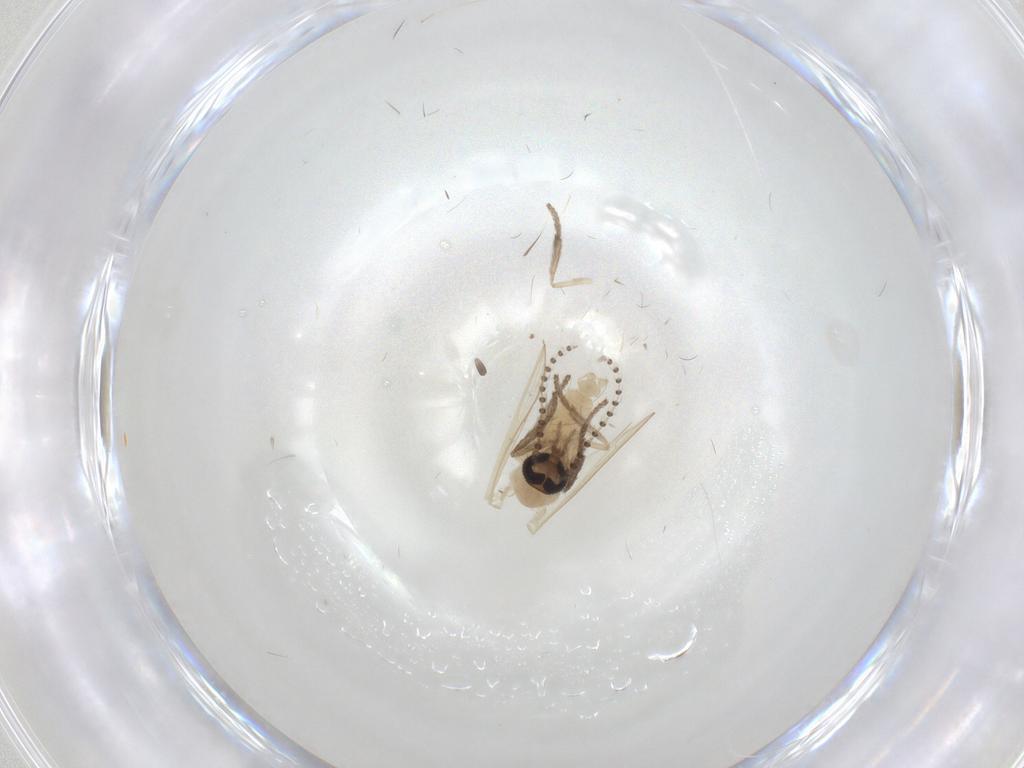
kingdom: Animalia
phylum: Arthropoda
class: Insecta
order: Diptera
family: Psychodidae
